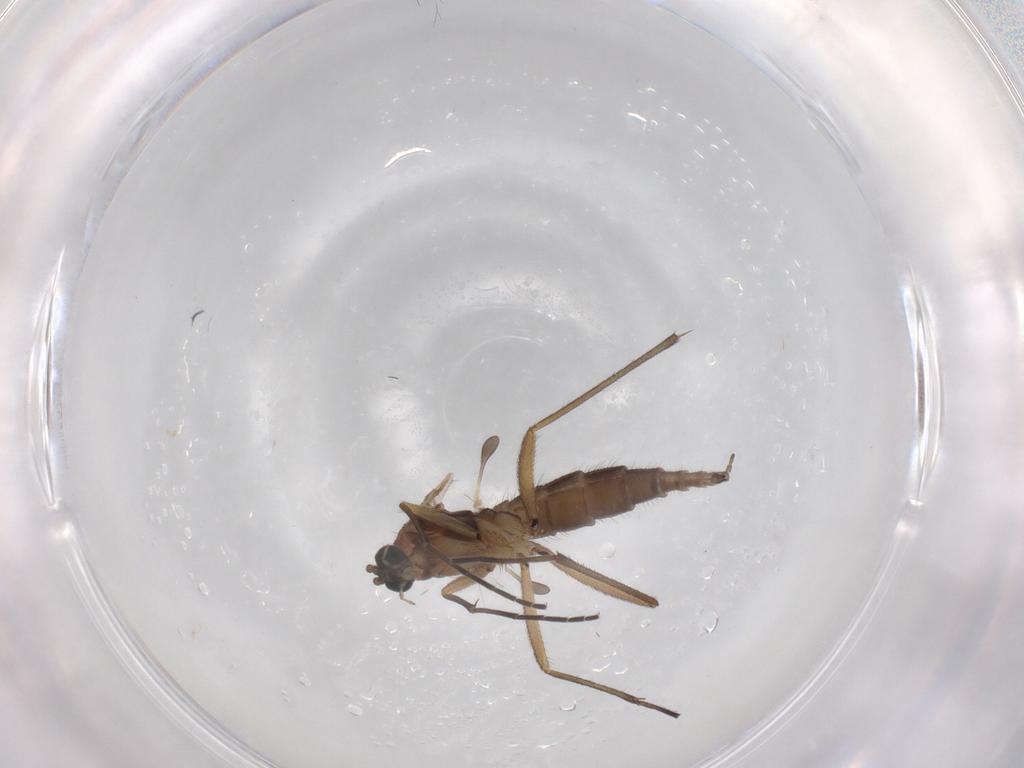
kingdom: Animalia
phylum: Arthropoda
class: Insecta
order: Diptera
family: Sciaridae
